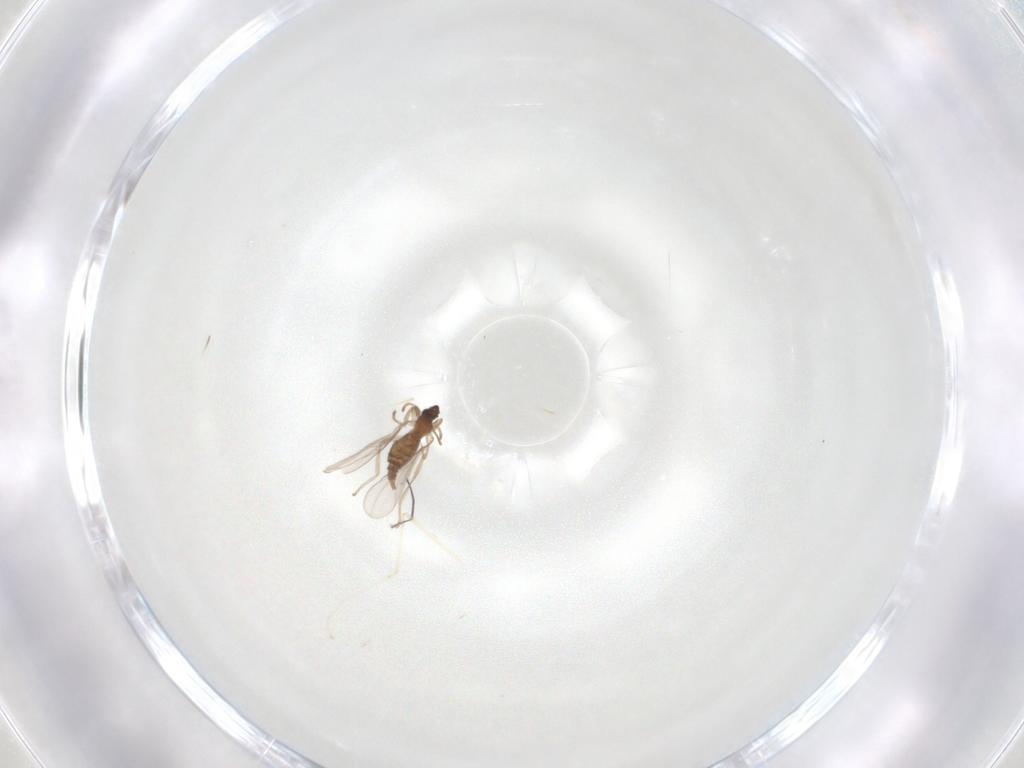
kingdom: Animalia
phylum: Arthropoda
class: Insecta
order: Diptera
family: Cecidomyiidae
